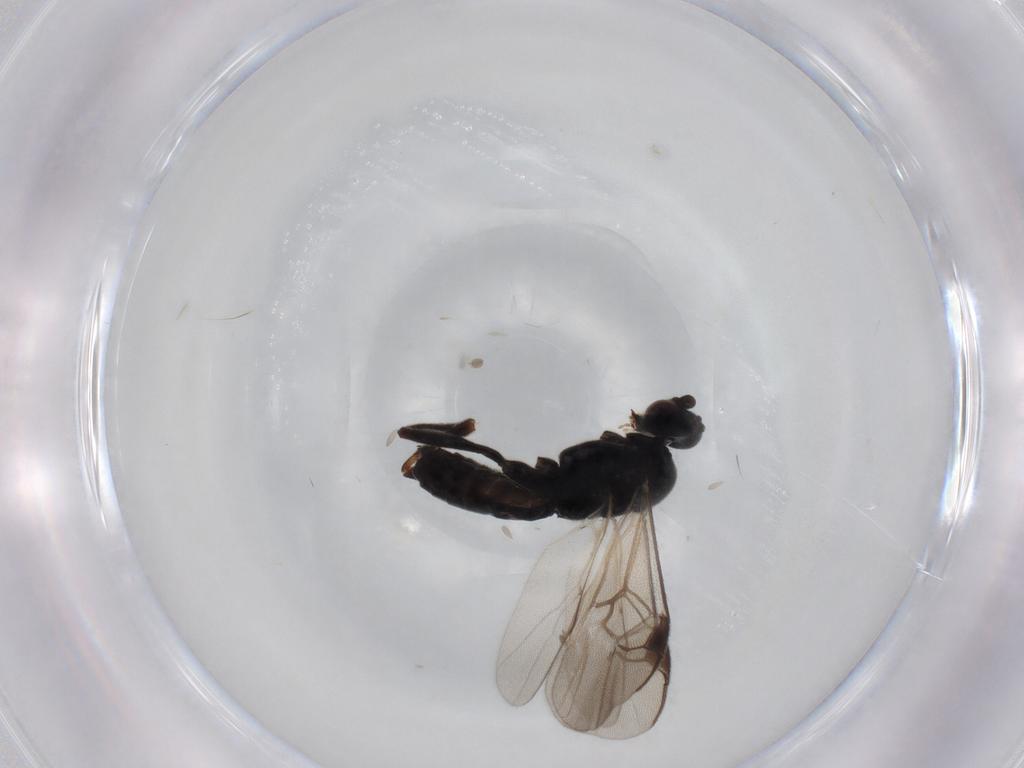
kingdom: Animalia
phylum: Arthropoda
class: Insecta
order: Hymenoptera
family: Braconidae
